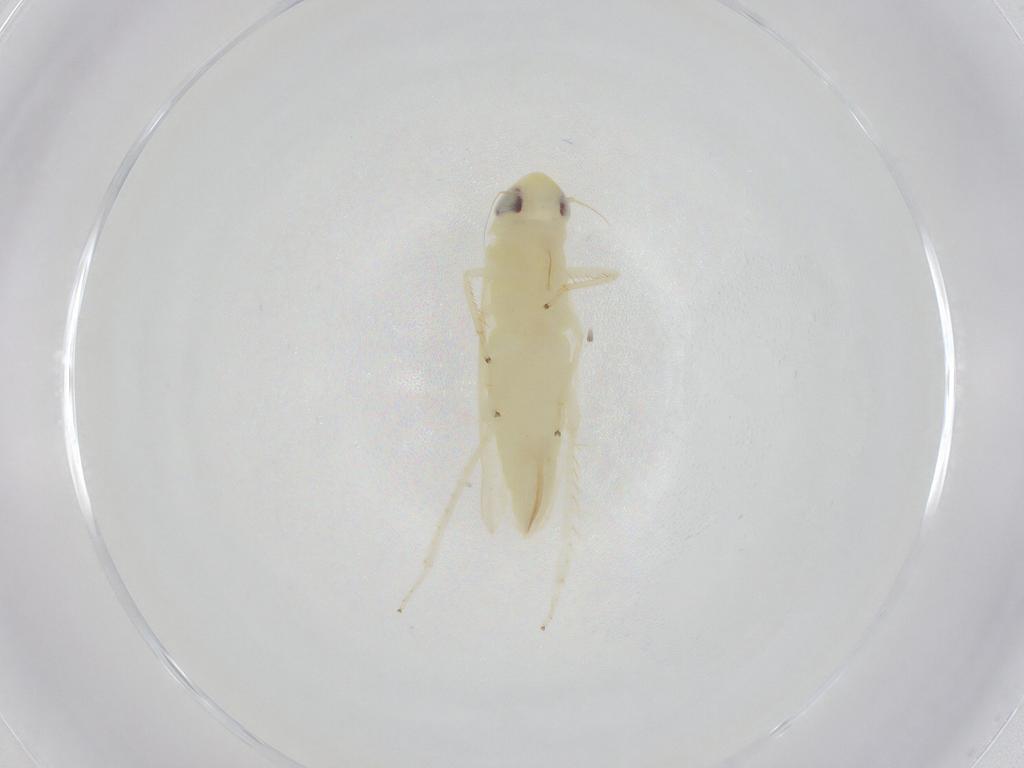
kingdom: Animalia
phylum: Arthropoda
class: Insecta
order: Hemiptera
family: Cicadellidae
